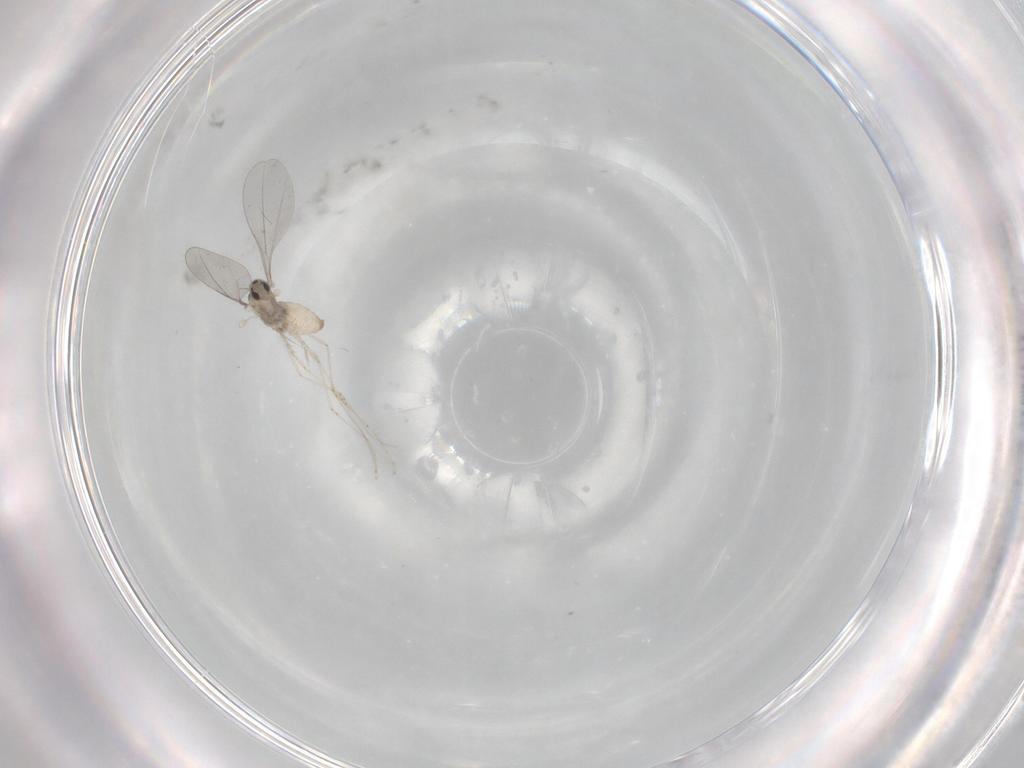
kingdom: Animalia
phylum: Arthropoda
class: Insecta
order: Diptera
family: Cecidomyiidae
